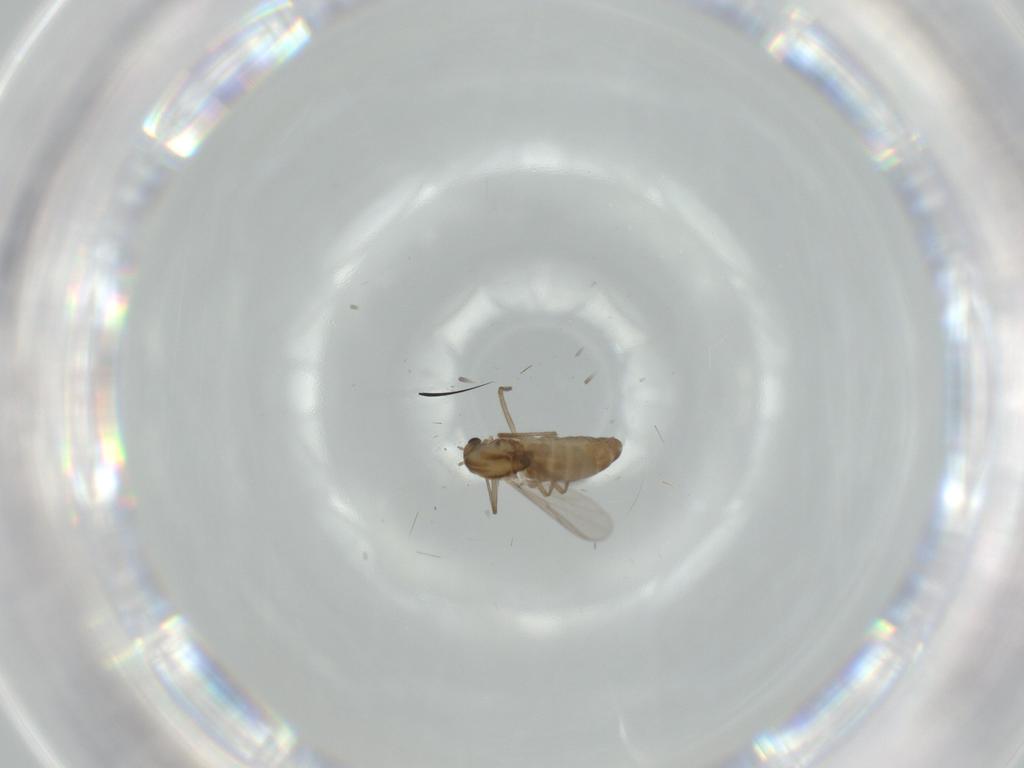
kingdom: Animalia
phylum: Arthropoda
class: Insecta
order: Diptera
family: Chironomidae
